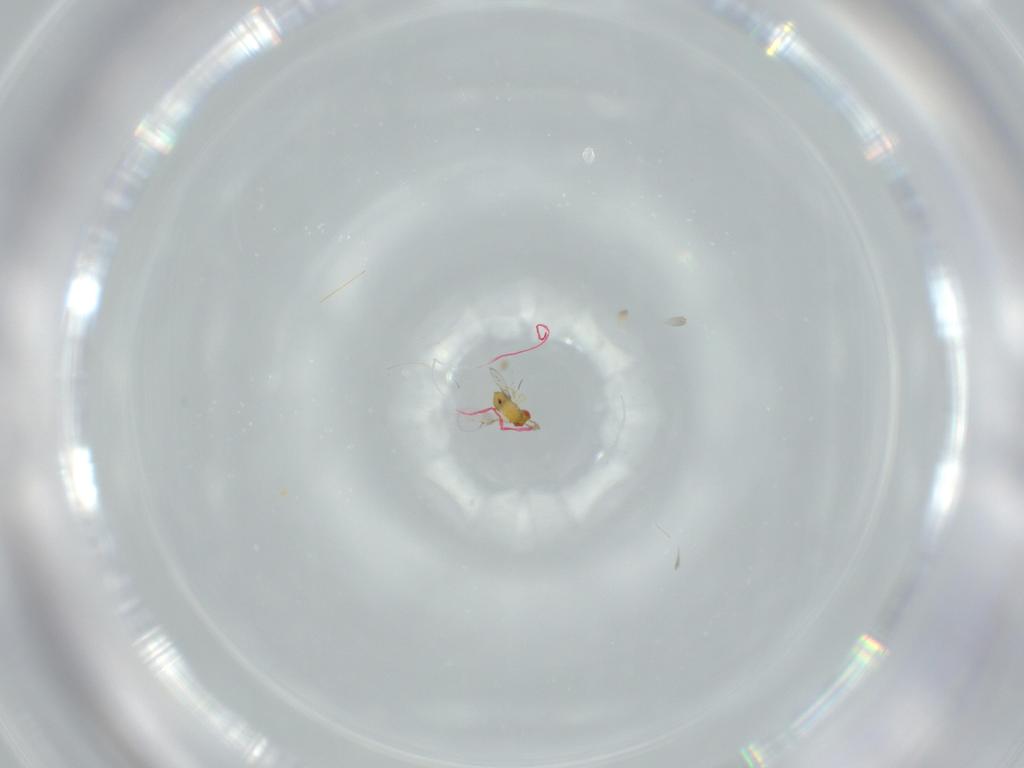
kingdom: Animalia
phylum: Arthropoda
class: Insecta
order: Hymenoptera
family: Trichogrammatidae
